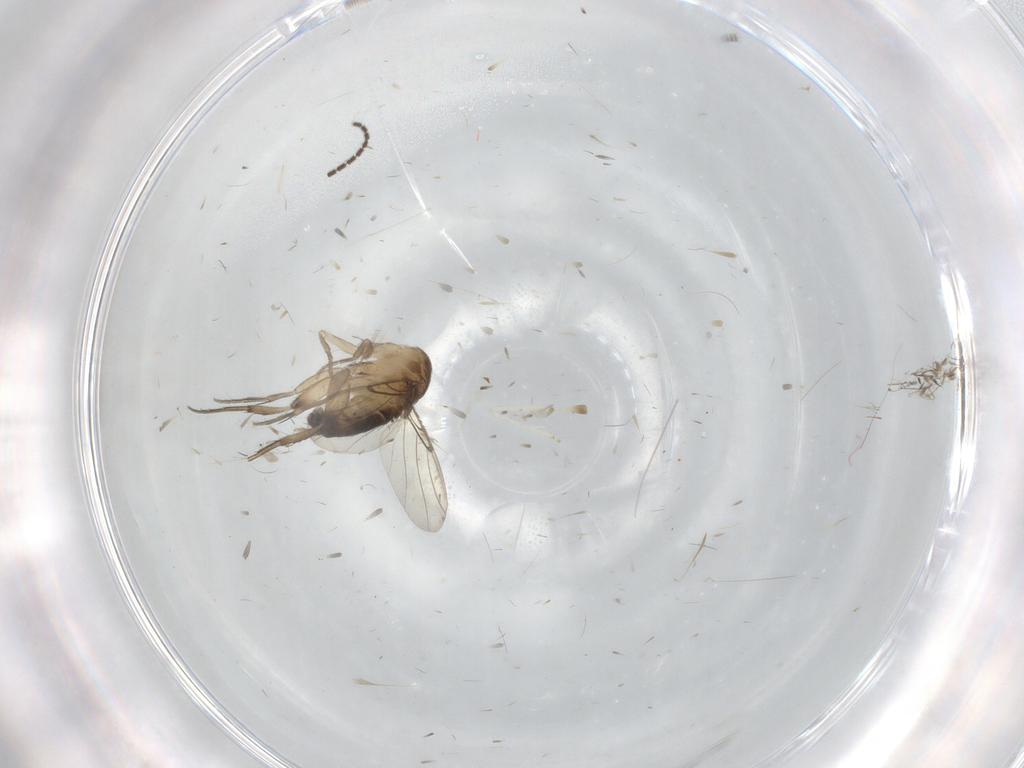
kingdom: Animalia
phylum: Arthropoda
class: Insecta
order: Diptera
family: Phoridae
